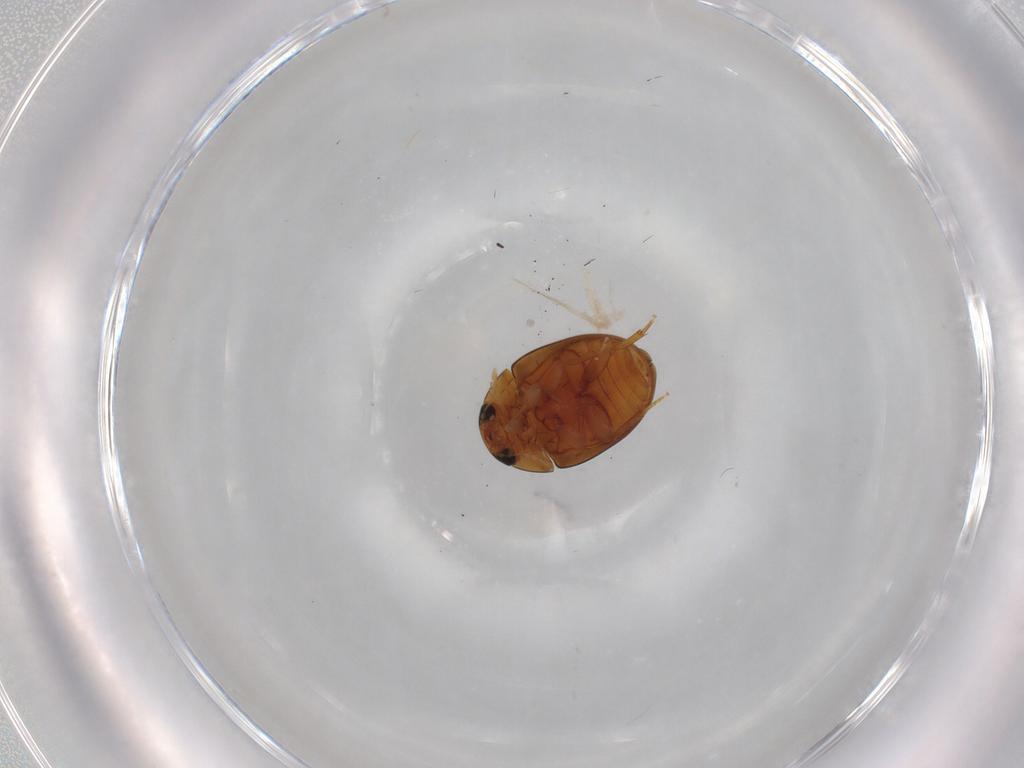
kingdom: Animalia
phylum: Arthropoda
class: Insecta
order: Coleoptera
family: Phalacridae
